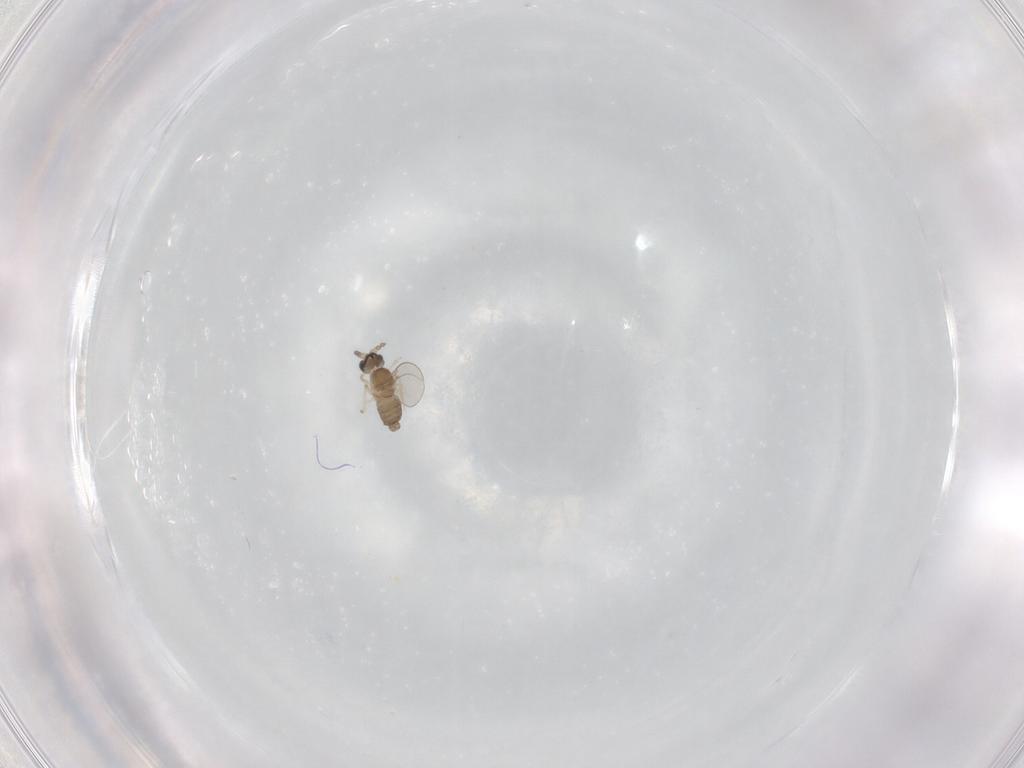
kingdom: Animalia
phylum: Arthropoda
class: Insecta
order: Diptera
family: Cecidomyiidae
